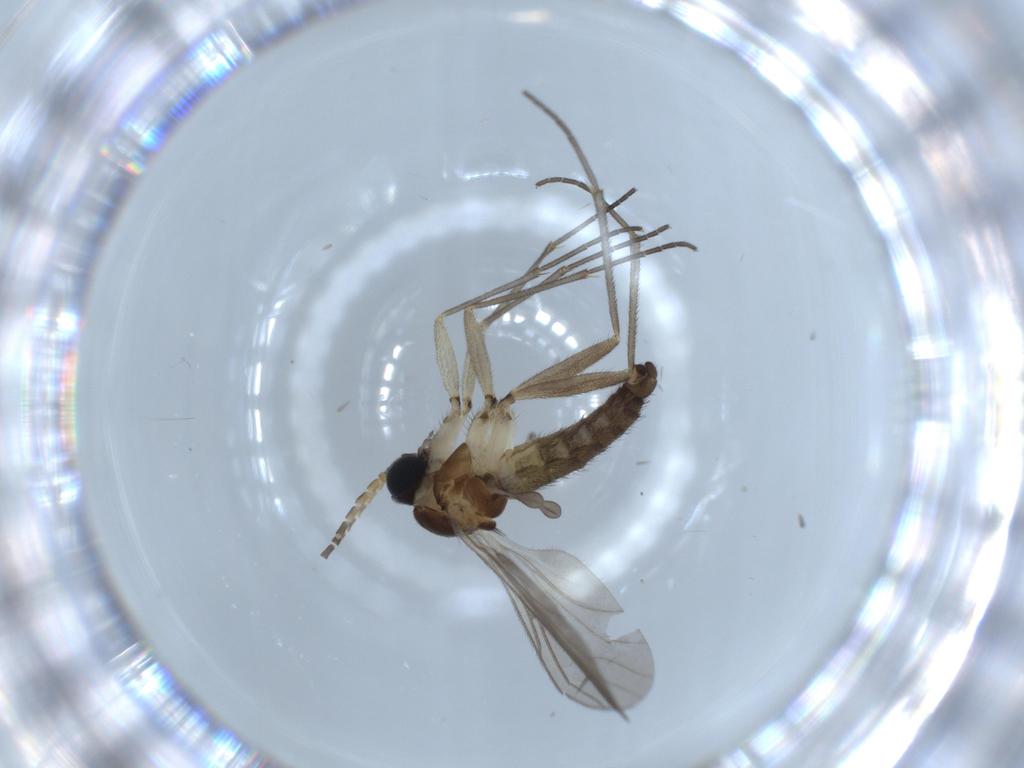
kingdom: Animalia
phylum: Arthropoda
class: Insecta
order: Diptera
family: Sciaridae
